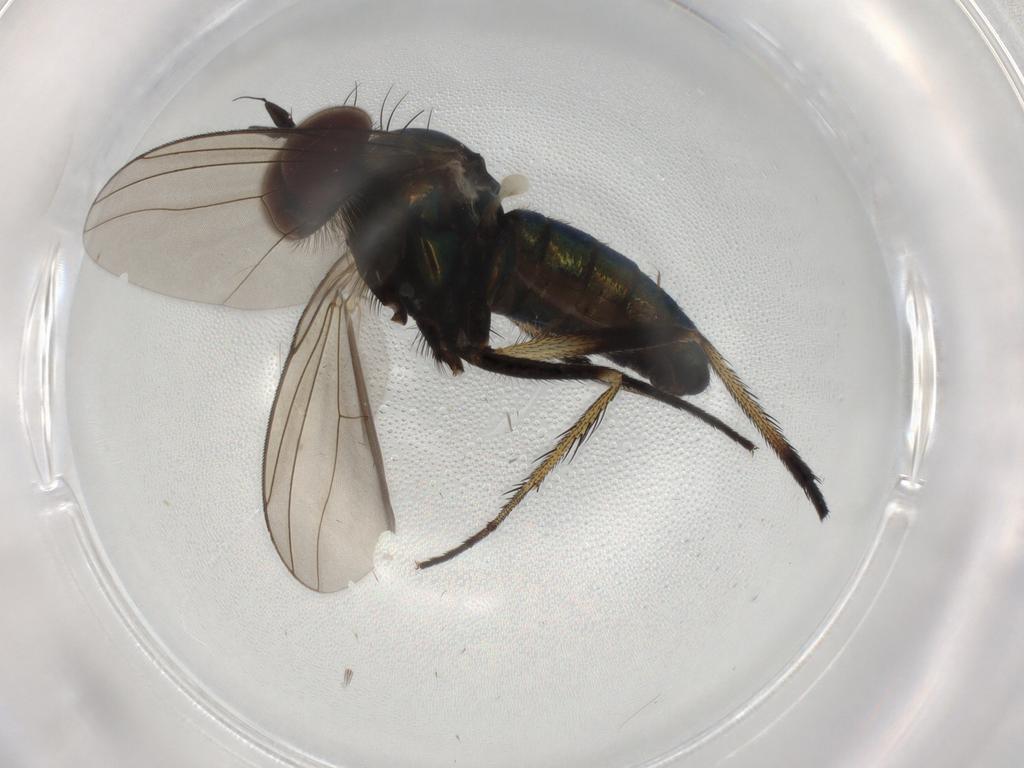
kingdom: Animalia
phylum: Arthropoda
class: Insecta
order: Diptera
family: Dolichopodidae
